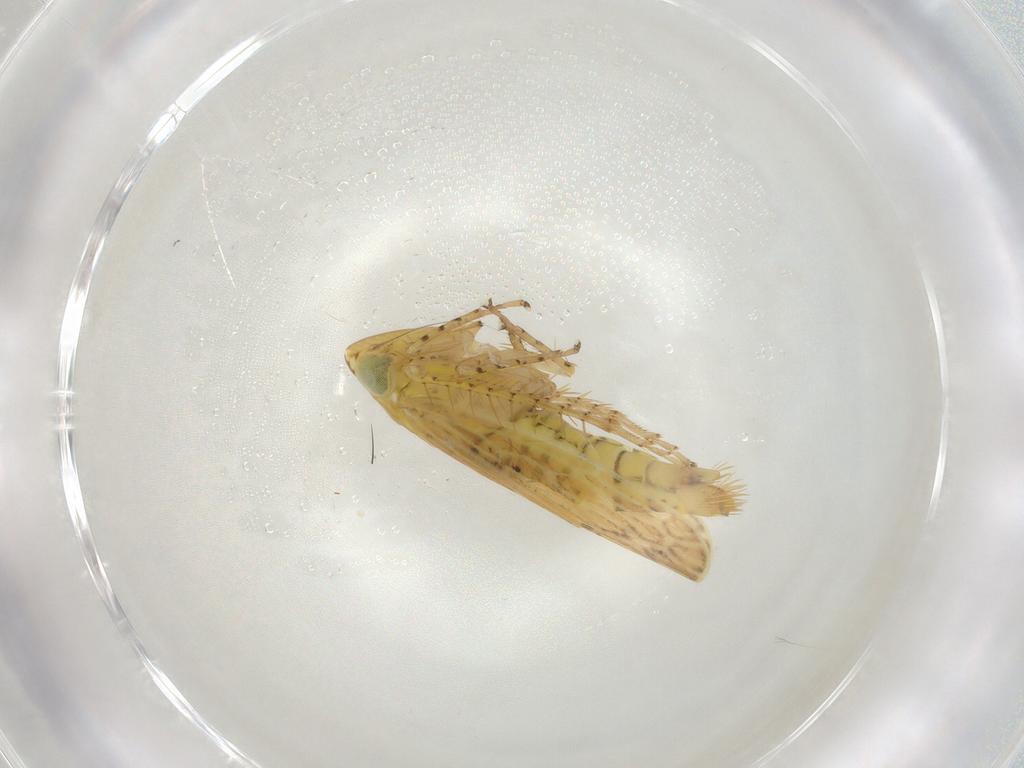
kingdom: Animalia
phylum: Arthropoda
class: Insecta
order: Hemiptera
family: Cicadellidae
